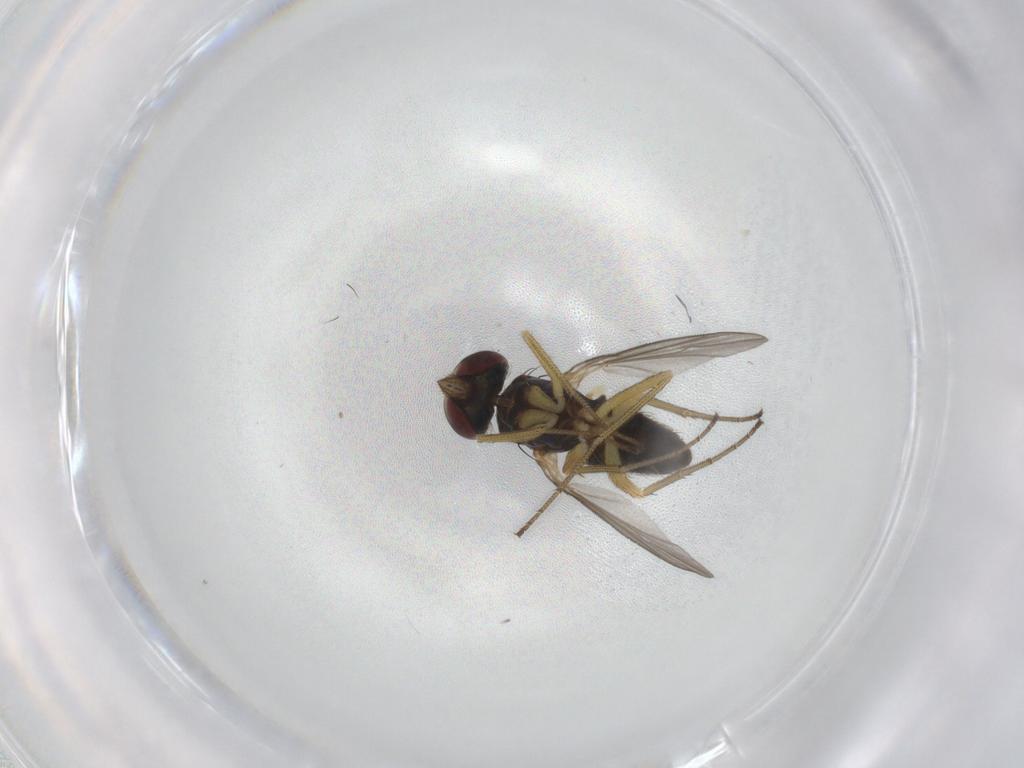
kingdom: Animalia
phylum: Arthropoda
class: Insecta
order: Diptera
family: Dolichopodidae
